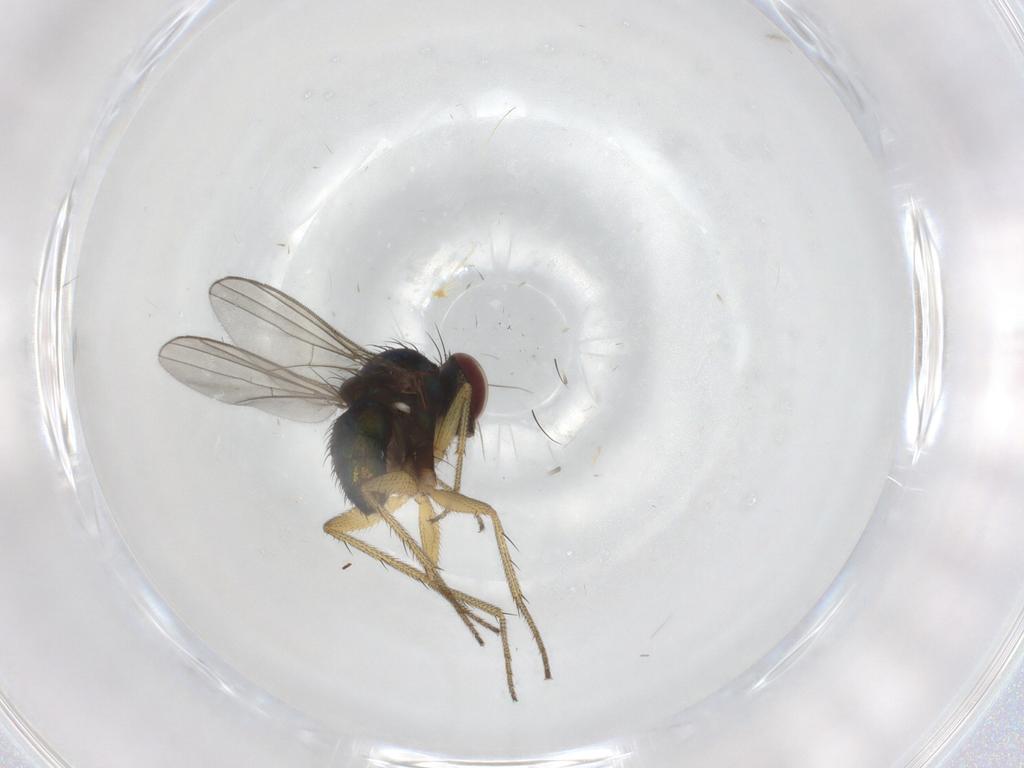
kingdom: Animalia
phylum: Arthropoda
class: Insecta
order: Diptera
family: Dolichopodidae
